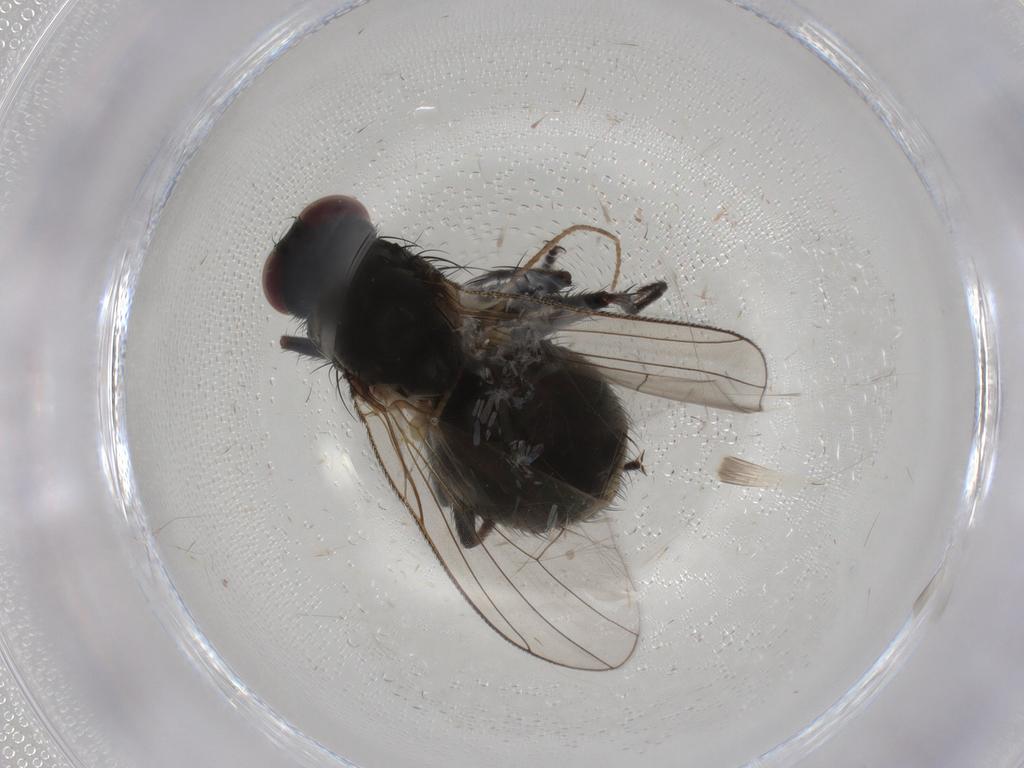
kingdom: Animalia
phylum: Arthropoda
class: Insecta
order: Diptera
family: Muscidae
